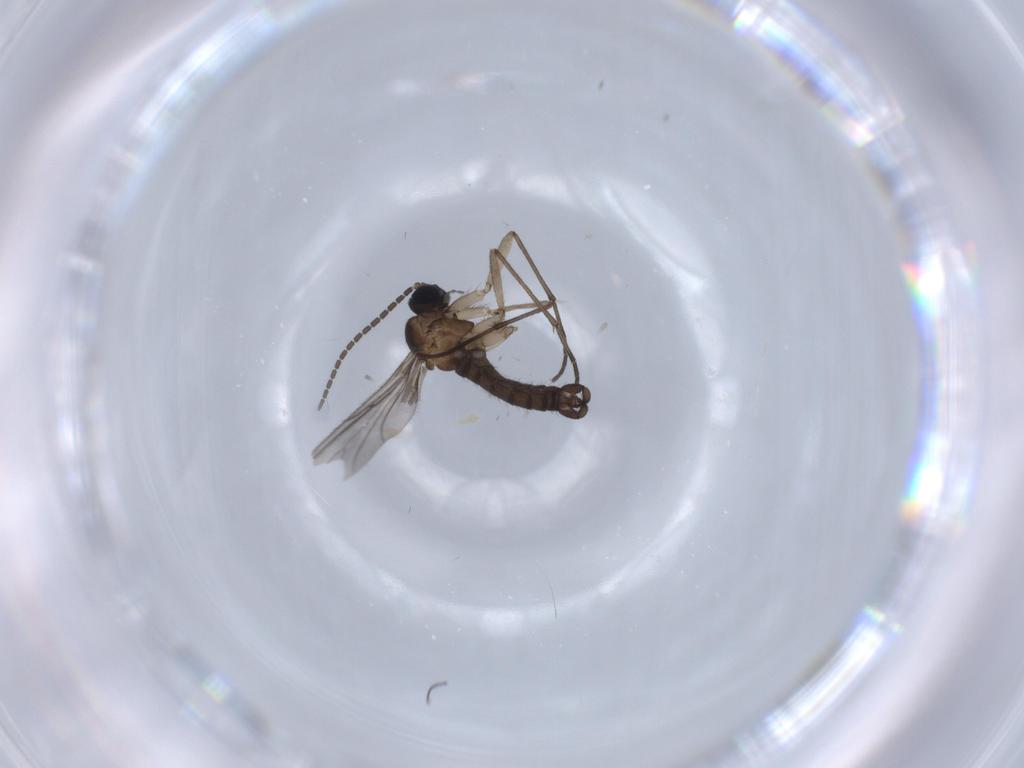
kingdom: Animalia
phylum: Arthropoda
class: Insecta
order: Diptera
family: Sciaridae
